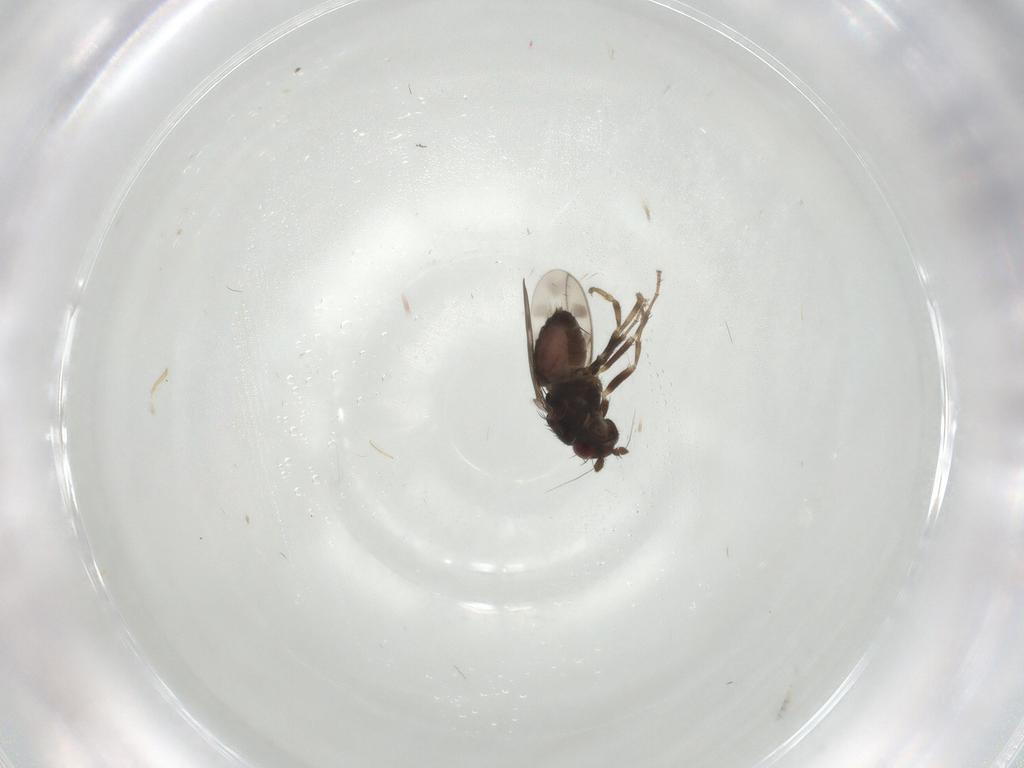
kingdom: Animalia
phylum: Arthropoda
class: Insecta
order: Diptera
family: Sphaeroceridae
